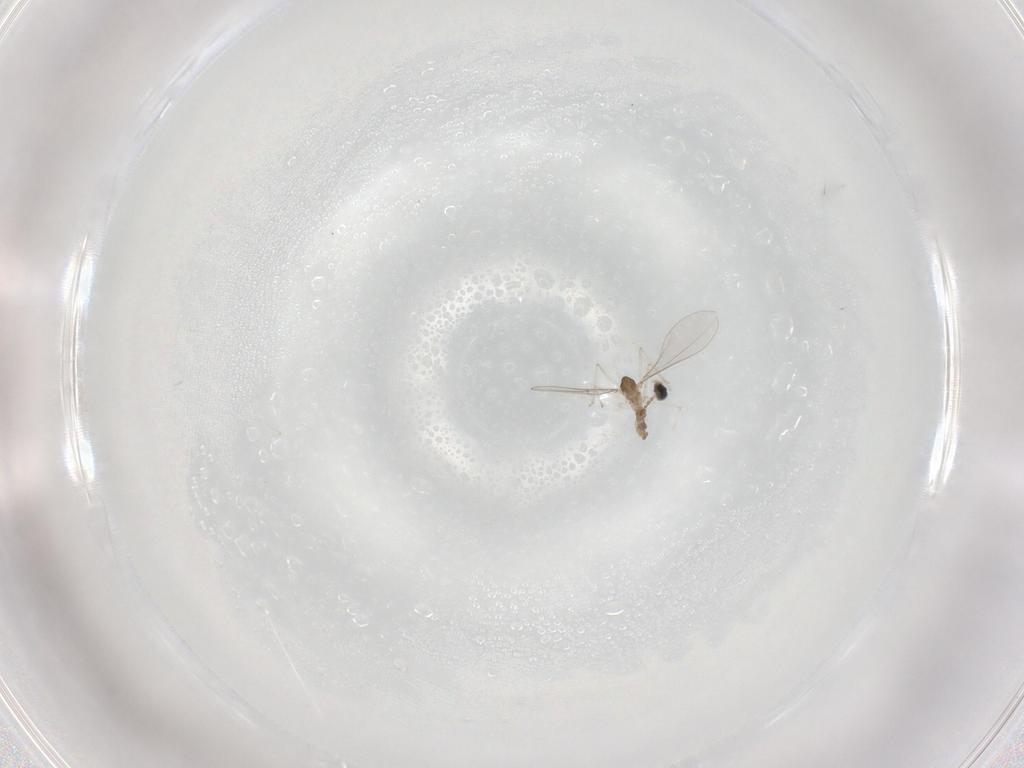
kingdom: Animalia
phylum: Arthropoda
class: Insecta
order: Diptera
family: Cecidomyiidae
